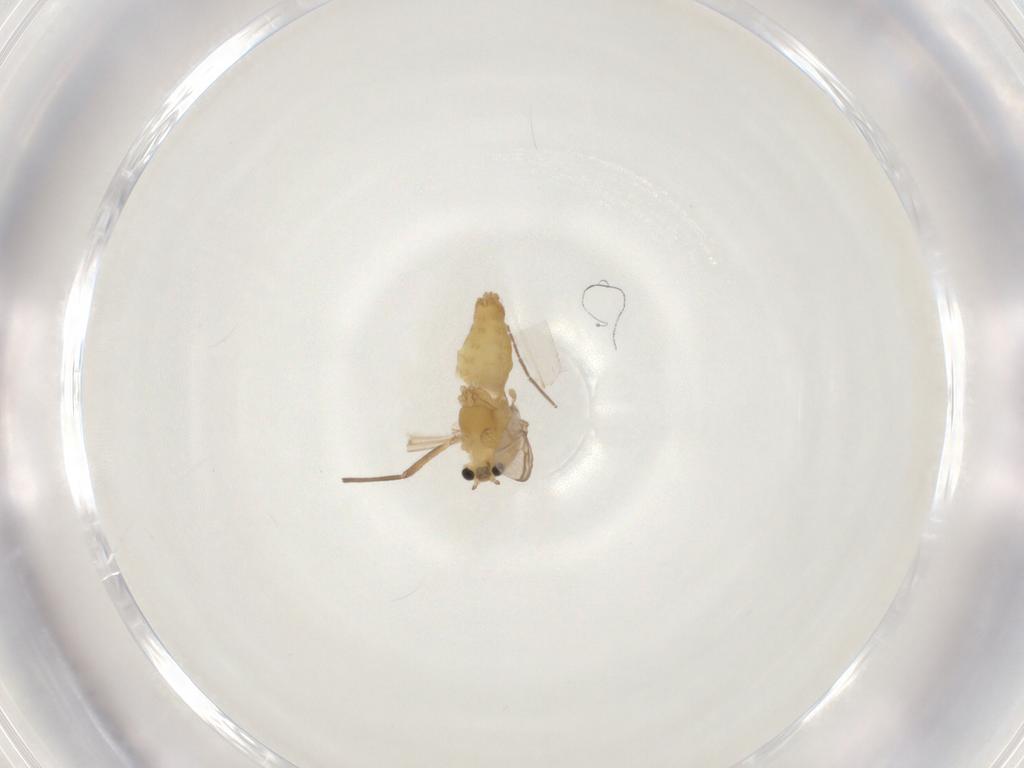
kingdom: Animalia
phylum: Arthropoda
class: Insecta
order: Diptera
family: Chironomidae
